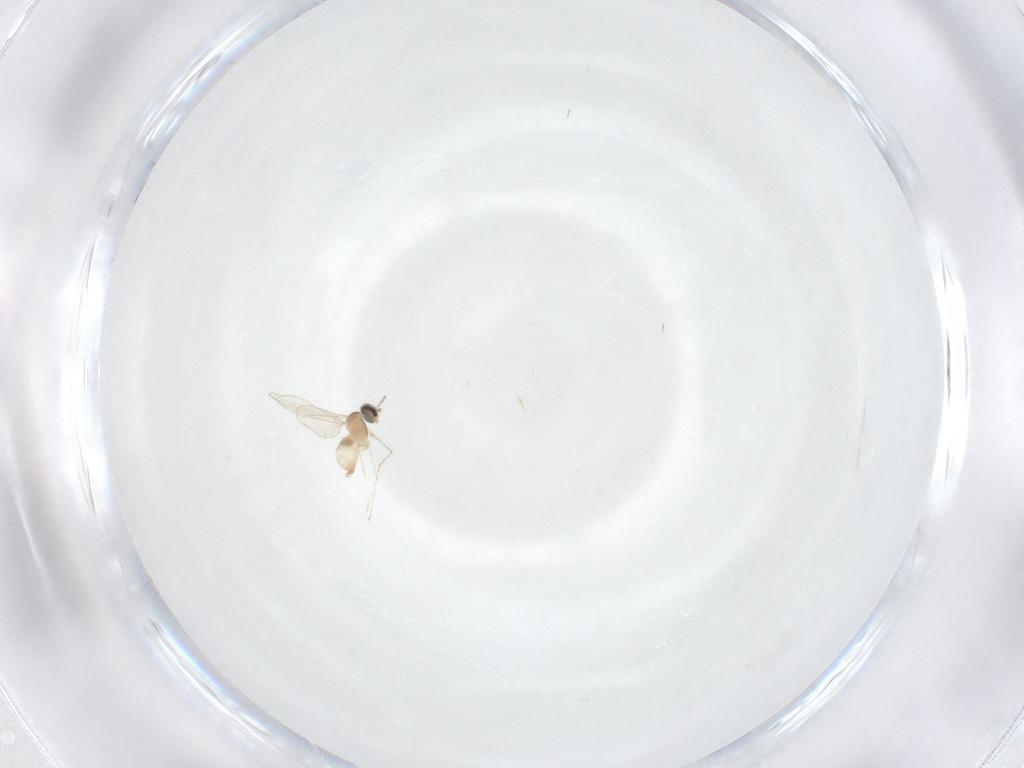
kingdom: Animalia
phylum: Arthropoda
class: Insecta
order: Diptera
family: Cecidomyiidae
